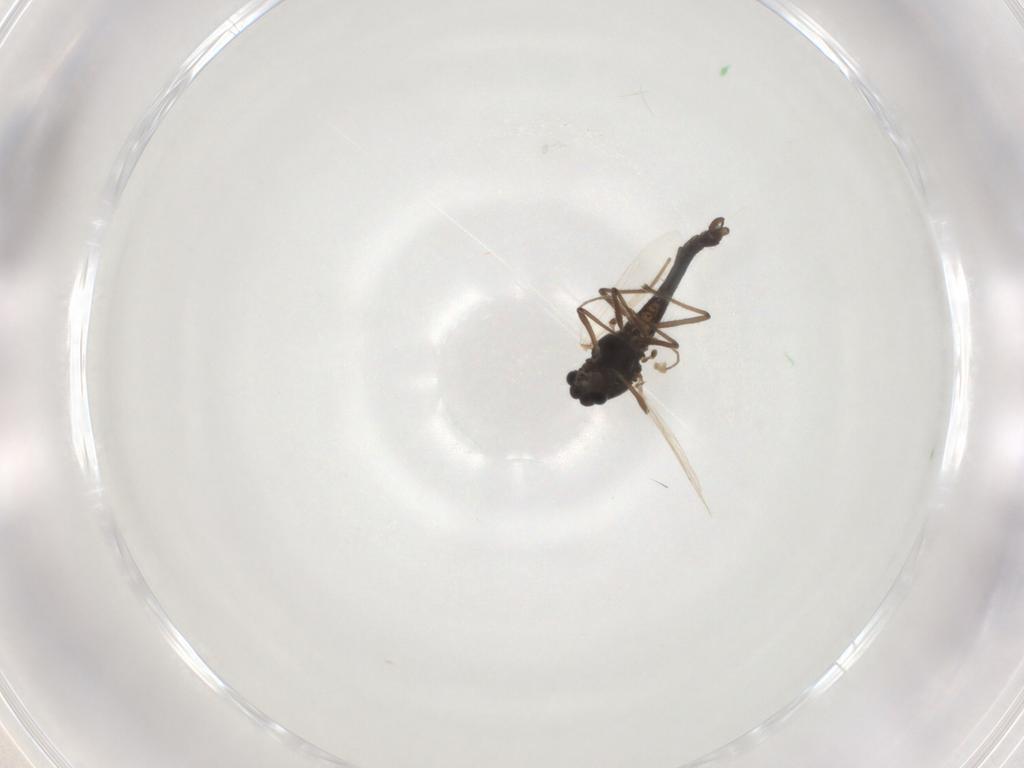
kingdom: Animalia
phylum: Arthropoda
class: Insecta
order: Diptera
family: Chironomidae
